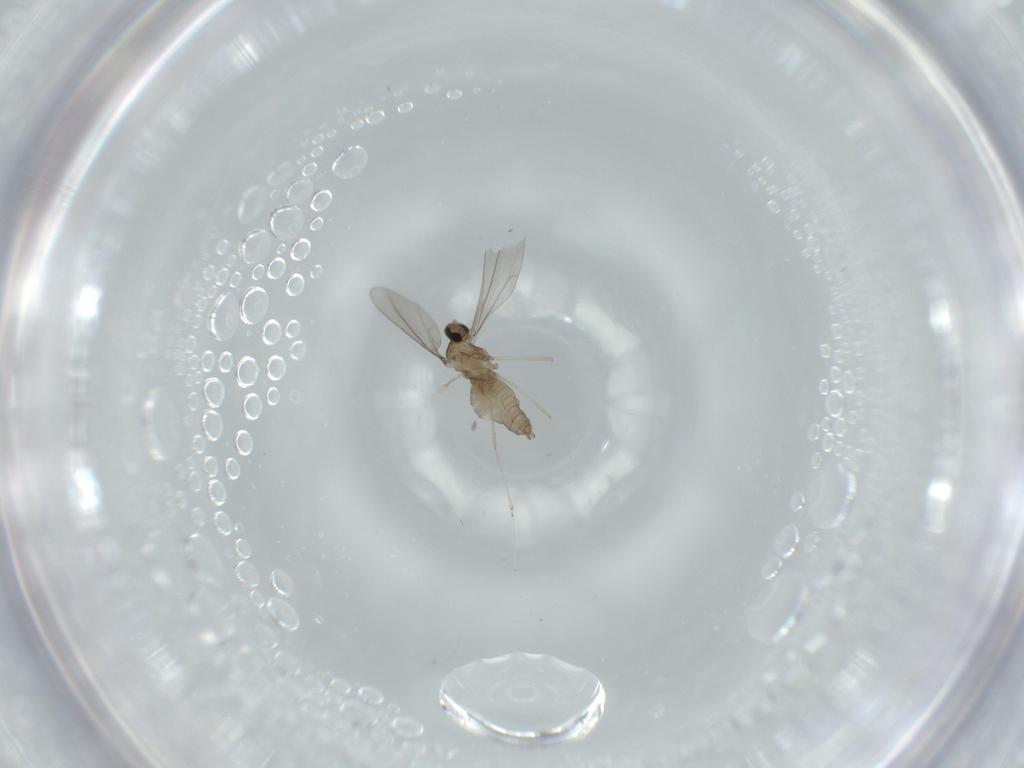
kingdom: Animalia
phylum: Arthropoda
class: Insecta
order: Diptera
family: Cecidomyiidae
